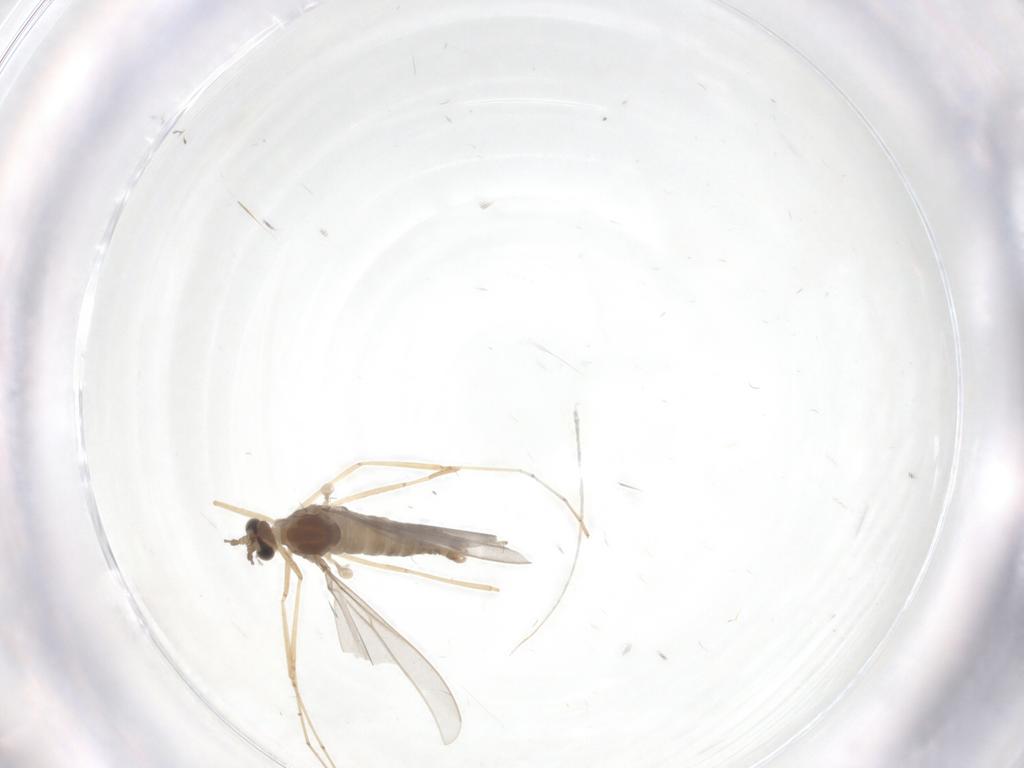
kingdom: Animalia
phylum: Arthropoda
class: Insecta
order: Diptera
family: Cecidomyiidae
